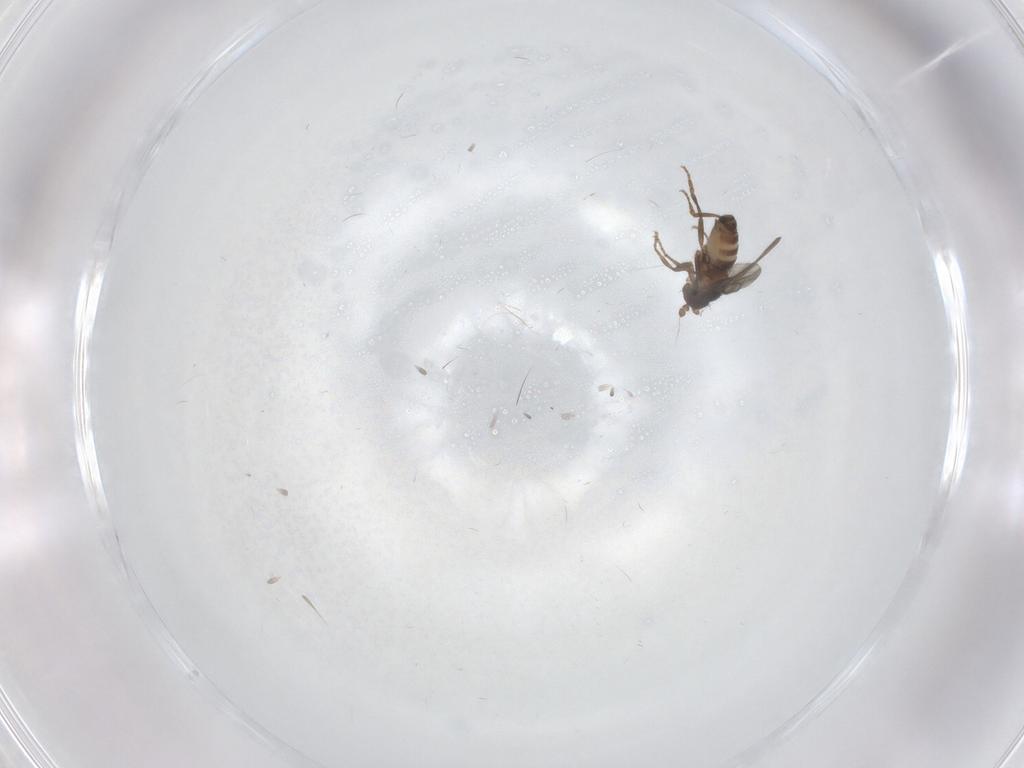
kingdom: Animalia
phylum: Arthropoda
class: Insecta
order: Diptera
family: Sphaeroceridae
